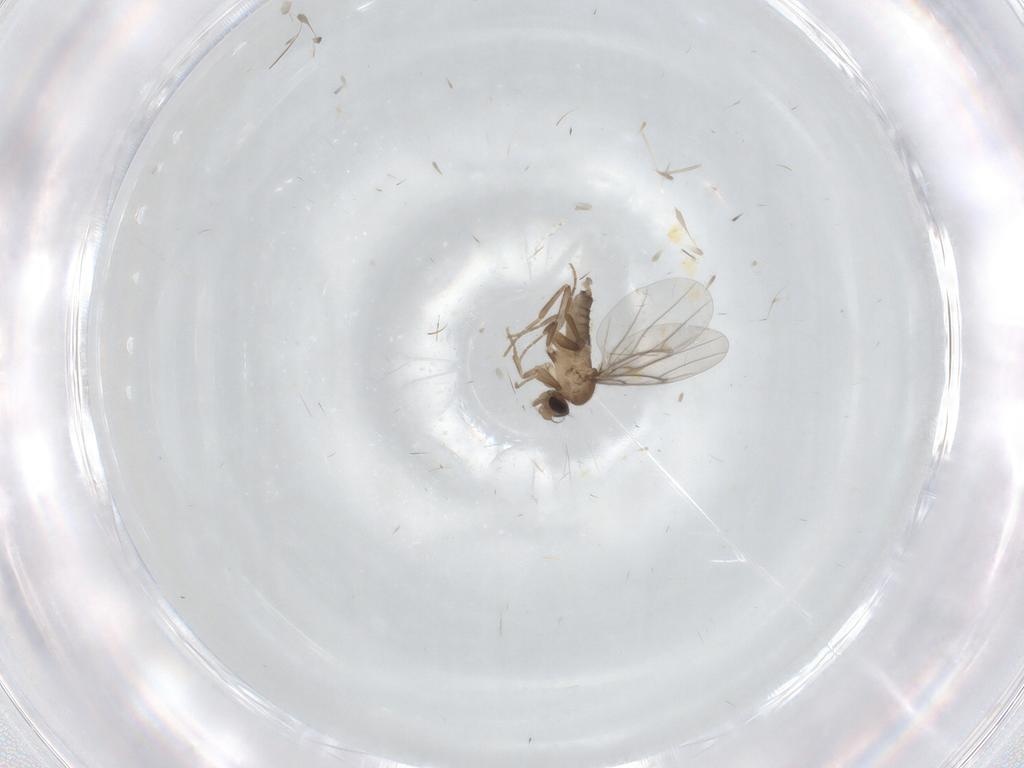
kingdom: Animalia
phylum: Arthropoda
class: Insecta
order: Diptera
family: Cecidomyiidae
